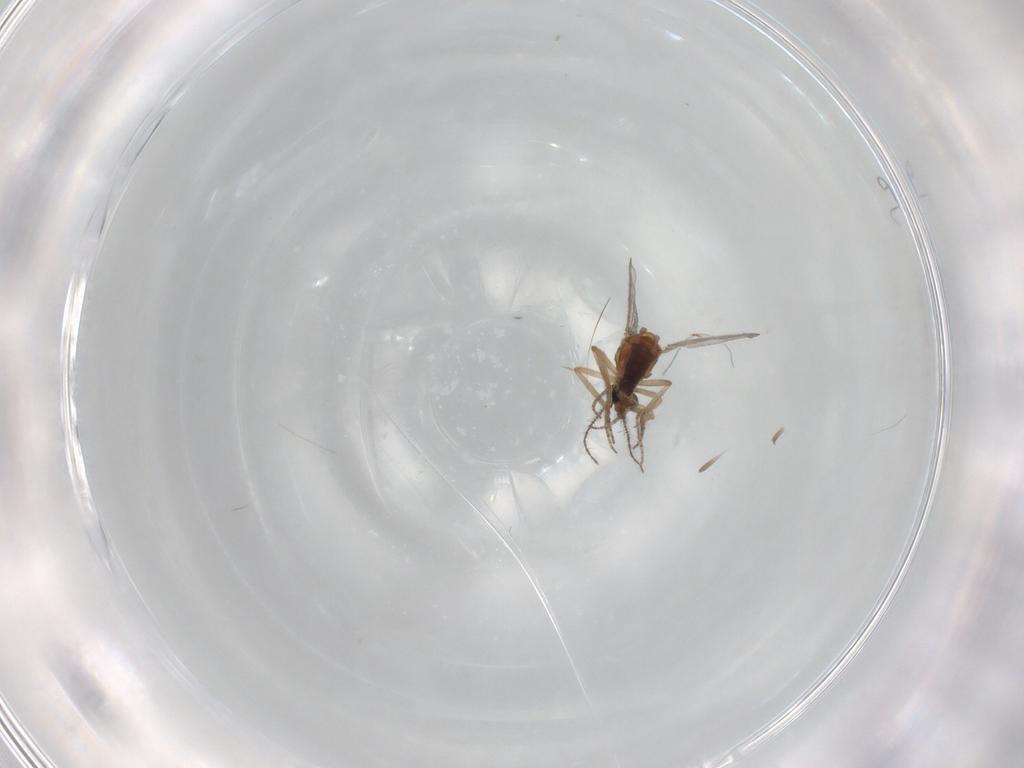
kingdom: Animalia
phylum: Arthropoda
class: Insecta
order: Diptera
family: Ceratopogonidae
